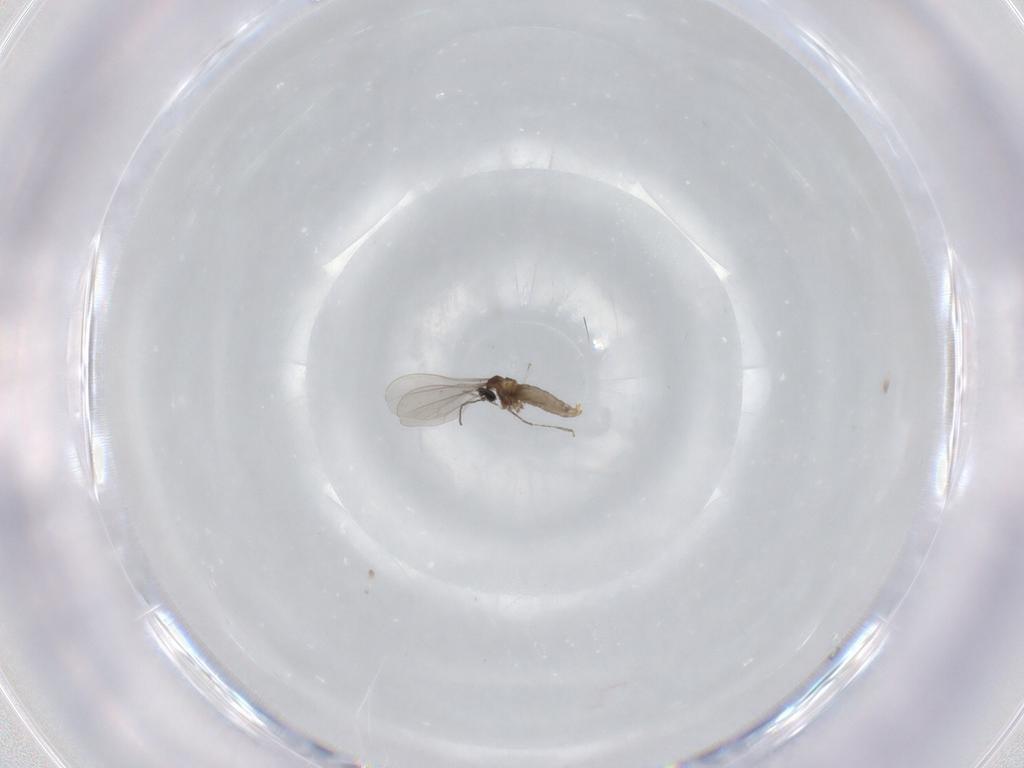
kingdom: Animalia
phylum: Arthropoda
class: Insecta
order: Diptera
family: Cecidomyiidae
